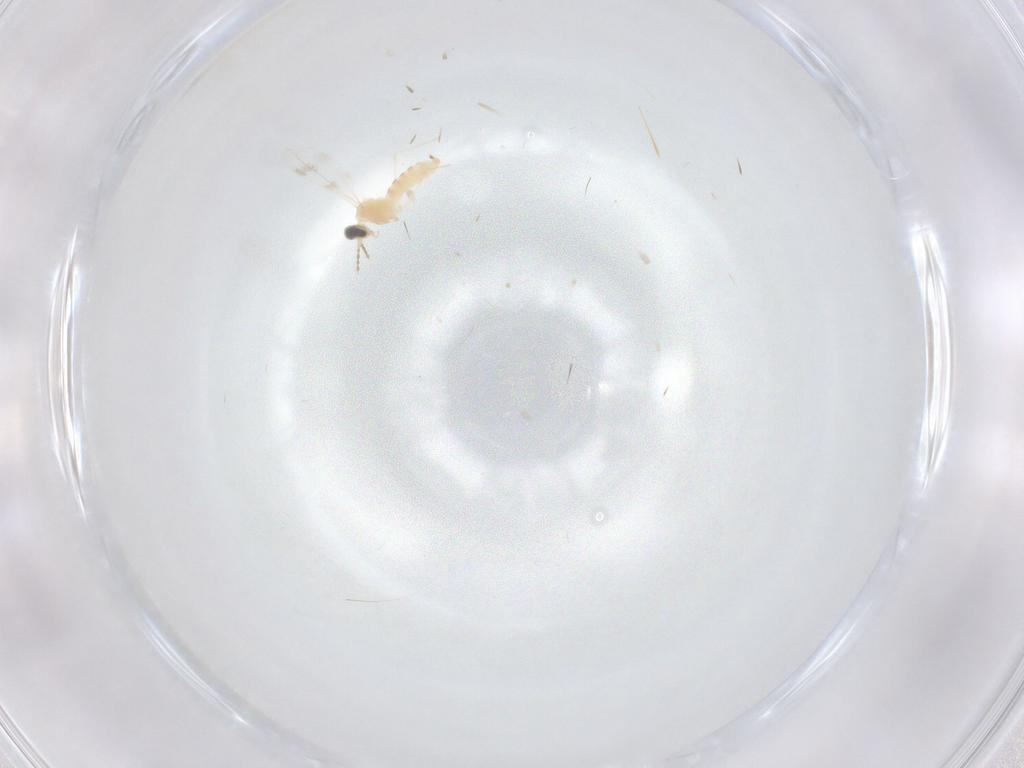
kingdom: Animalia
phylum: Arthropoda
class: Insecta
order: Diptera
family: Cecidomyiidae
